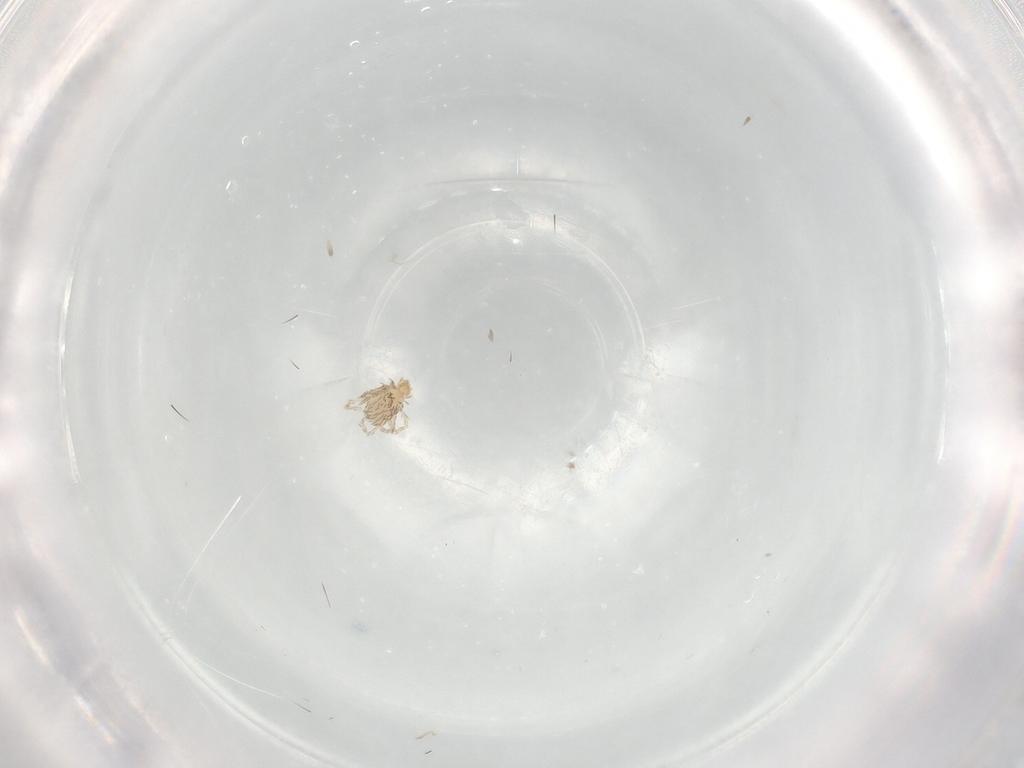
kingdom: Animalia
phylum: Arthropoda
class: Arachnida
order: Trombidiformes
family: Erythraeidae
